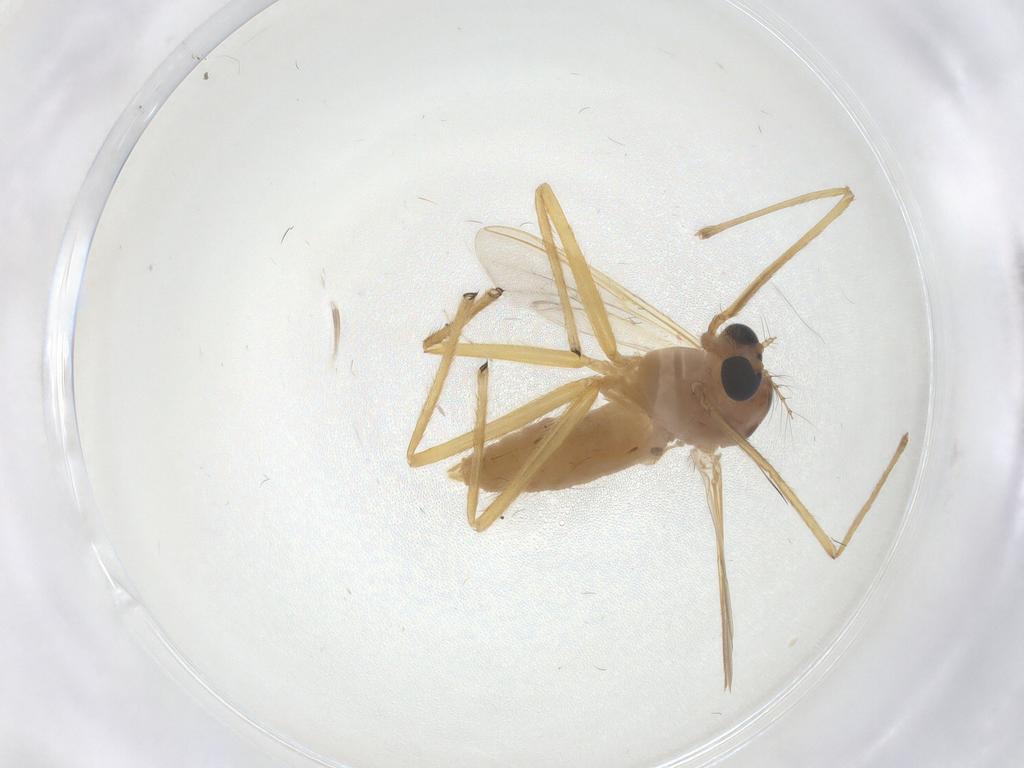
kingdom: Animalia
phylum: Arthropoda
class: Insecta
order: Diptera
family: Chironomidae
